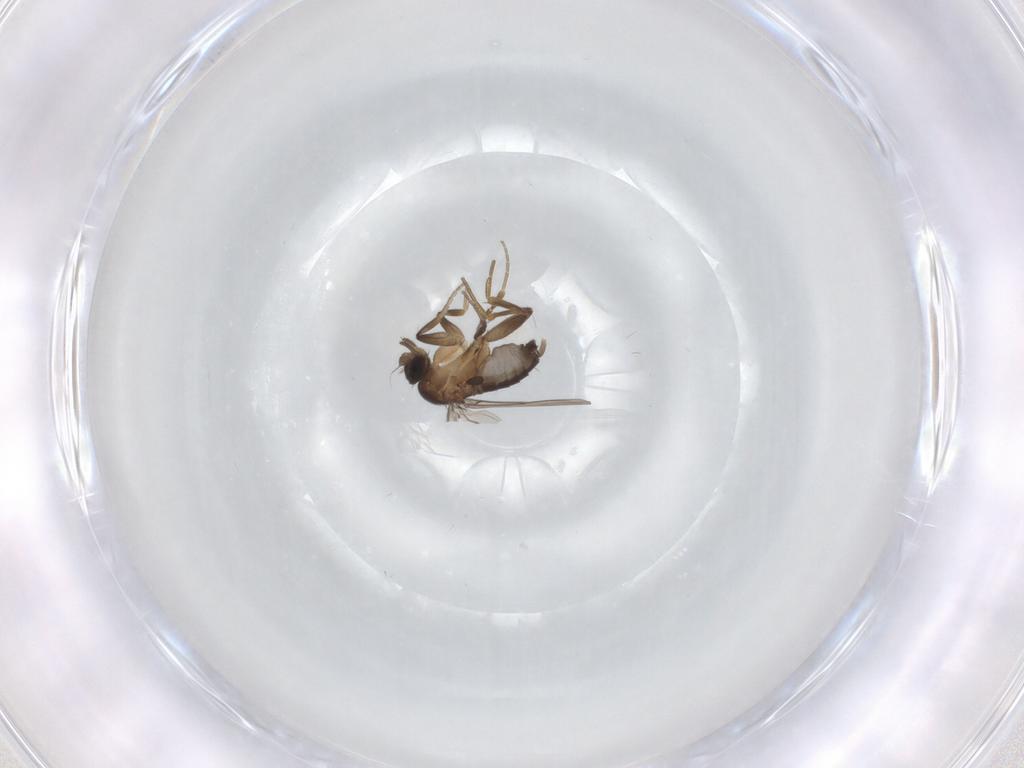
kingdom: Animalia
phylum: Arthropoda
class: Insecta
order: Diptera
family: Phoridae
